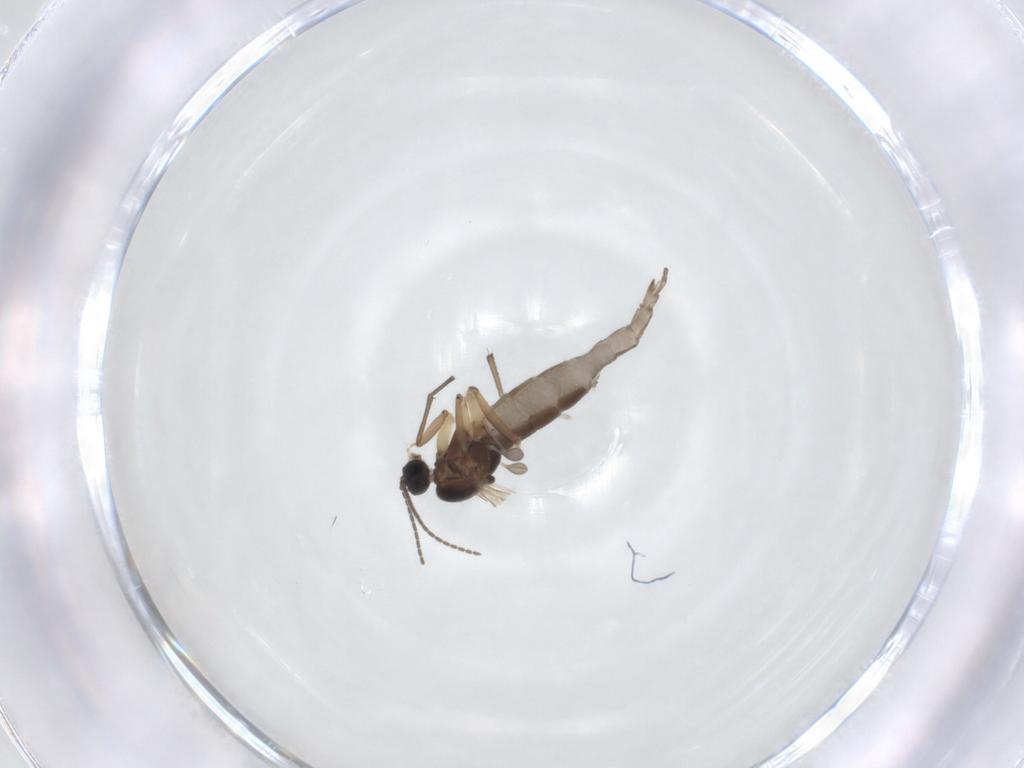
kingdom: Animalia
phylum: Arthropoda
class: Insecta
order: Diptera
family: Sciaridae
